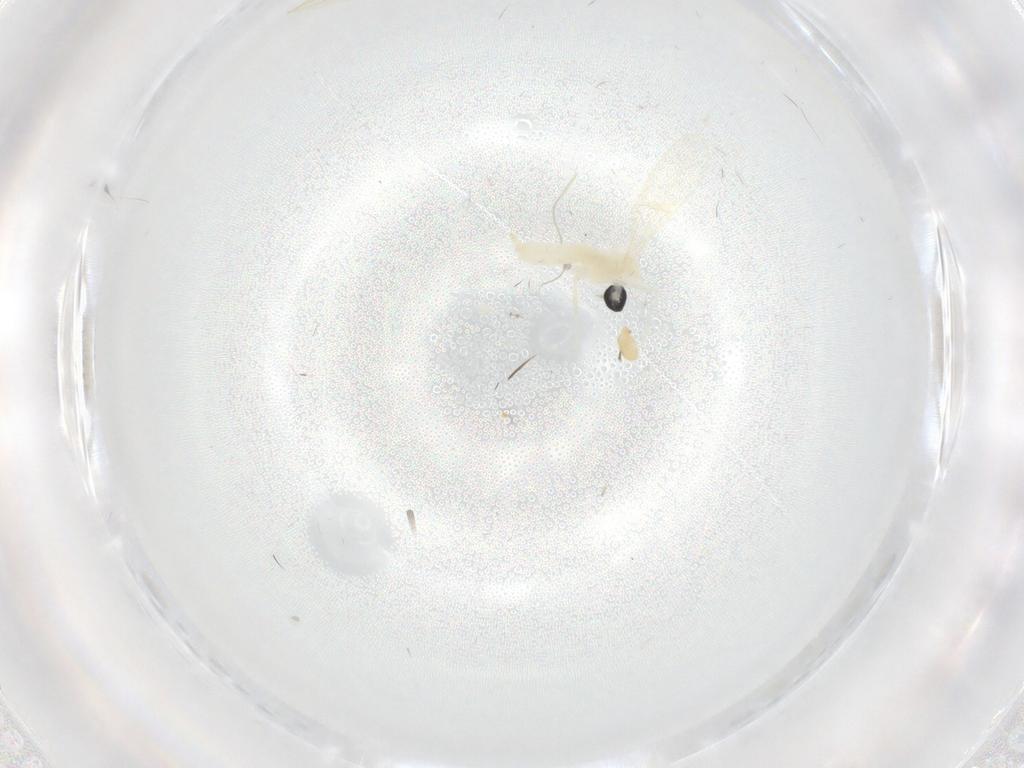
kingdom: Animalia
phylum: Arthropoda
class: Insecta
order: Diptera
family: Cecidomyiidae
